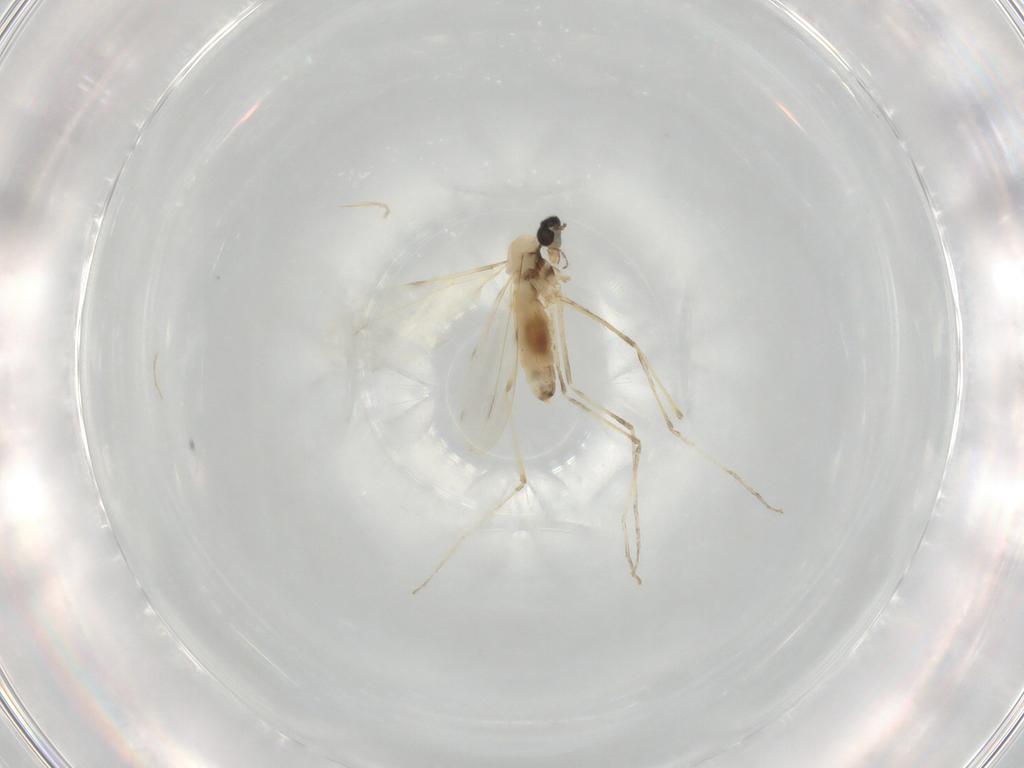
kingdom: Animalia
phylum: Arthropoda
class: Insecta
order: Diptera
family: Cecidomyiidae
